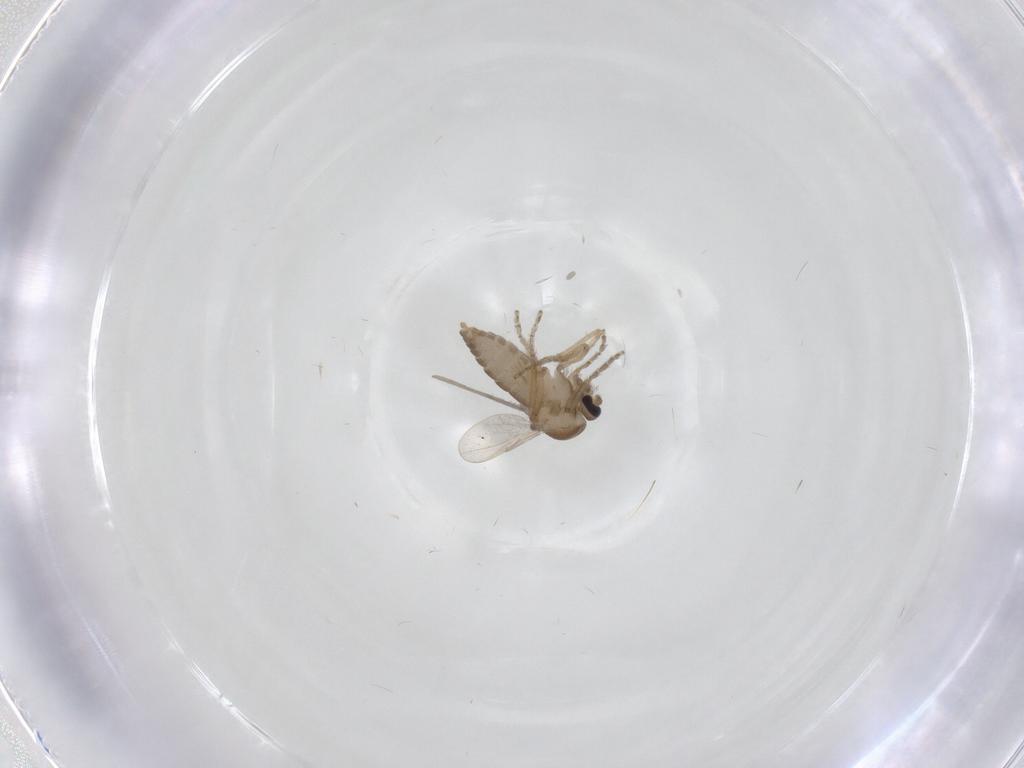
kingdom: Animalia
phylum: Arthropoda
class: Insecta
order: Diptera
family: Ceratopogonidae
